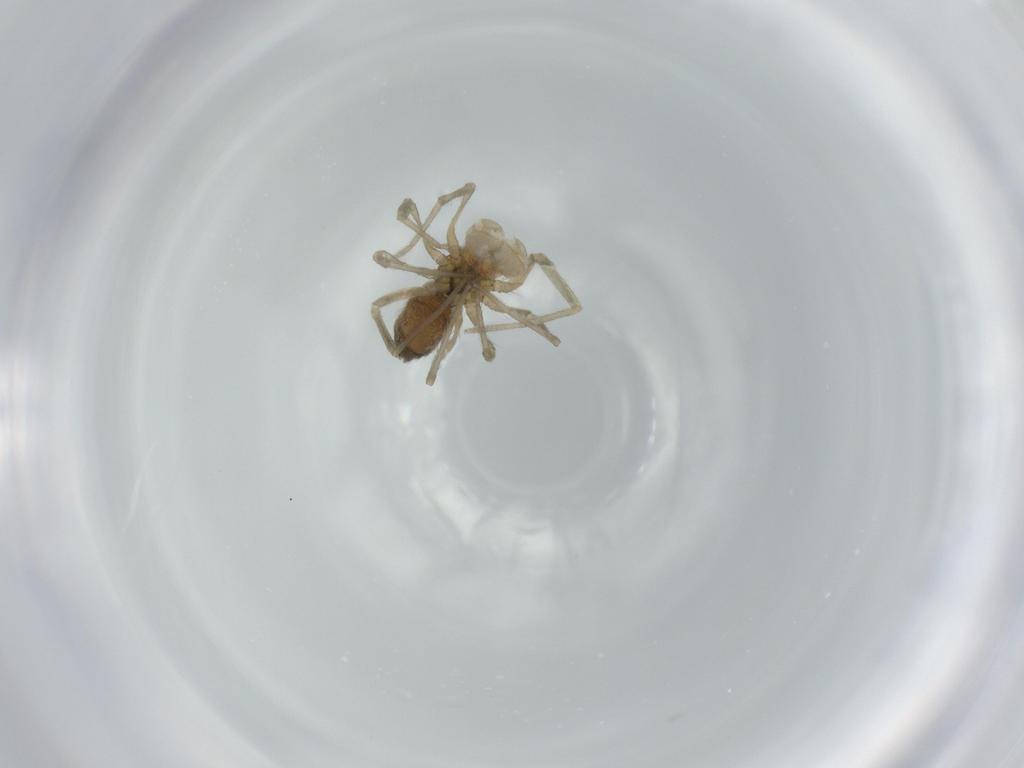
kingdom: Animalia
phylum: Arthropoda
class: Arachnida
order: Araneae
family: Linyphiidae
